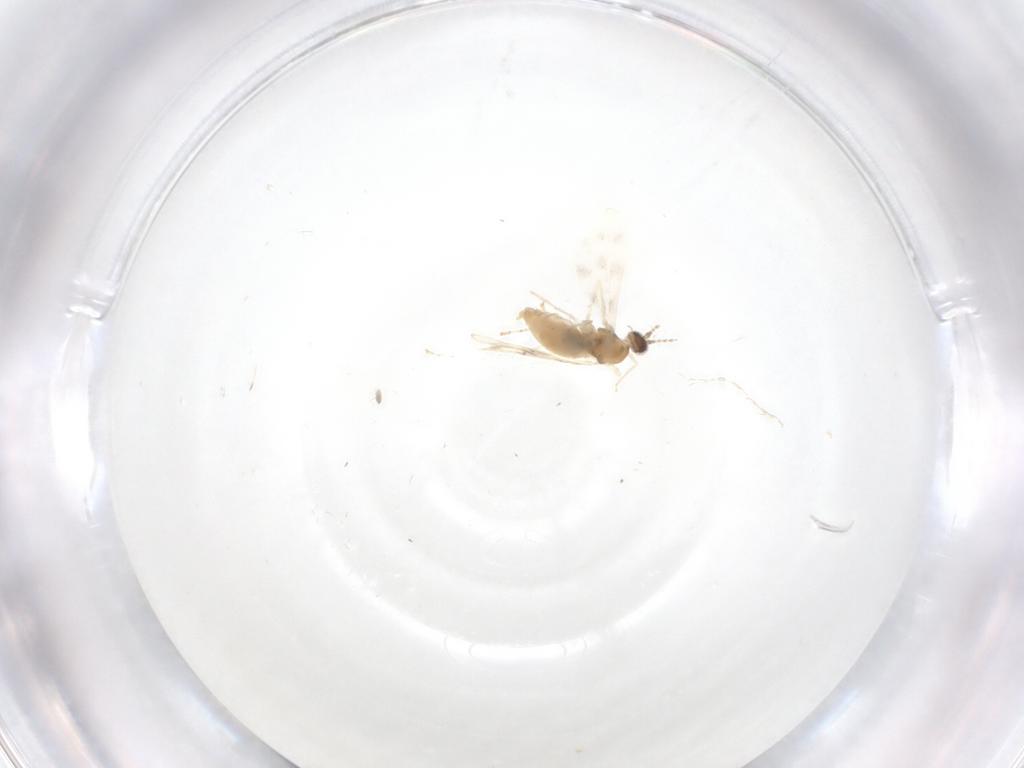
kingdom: Animalia
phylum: Arthropoda
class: Insecta
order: Diptera
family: Cecidomyiidae
